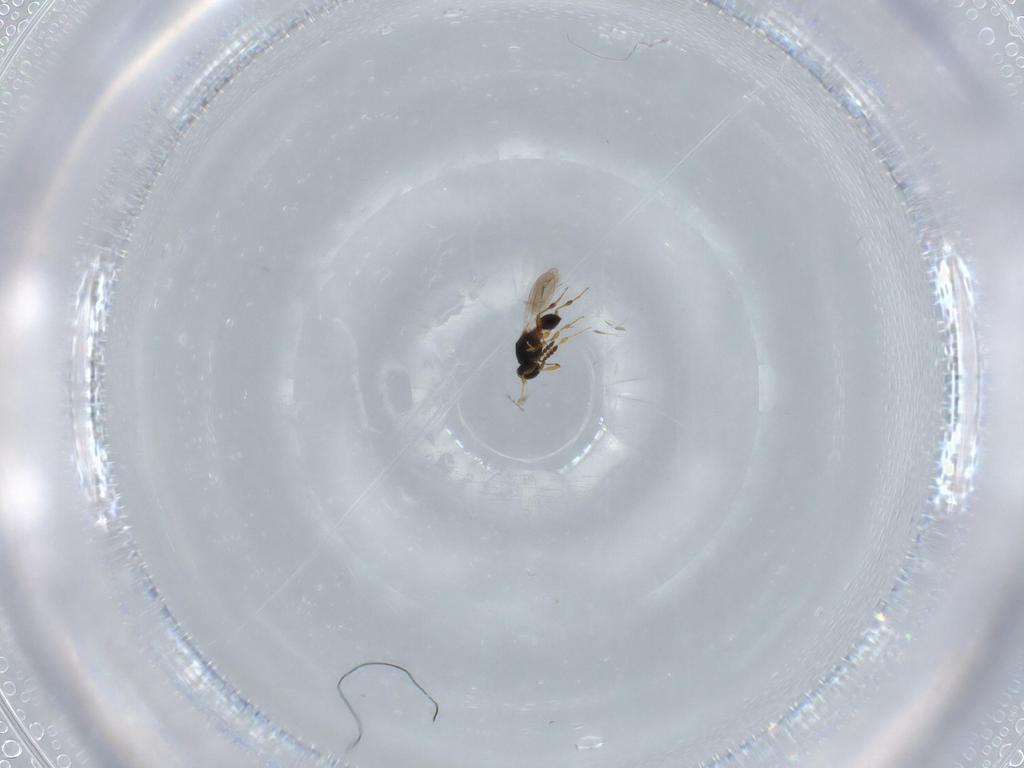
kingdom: Animalia
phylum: Arthropoda
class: Insecta
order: Hymenoptera
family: Platygastridae
